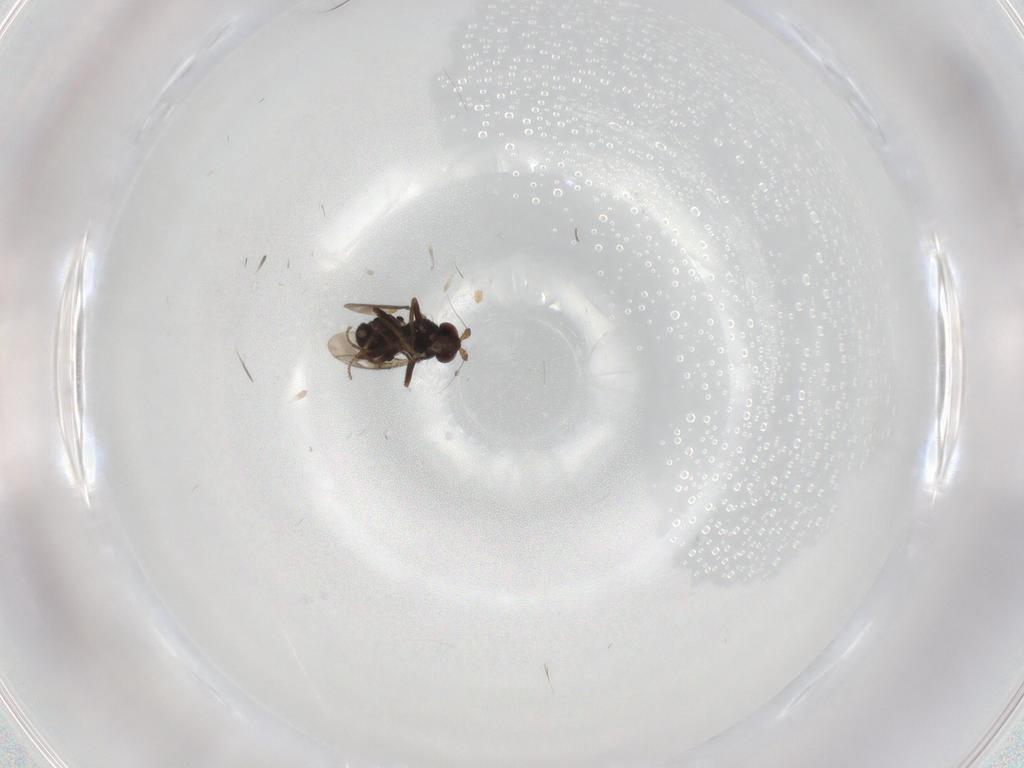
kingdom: Animalia
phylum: Arthropoda
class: Insecta
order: Diptera
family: Sphaeroceridae
